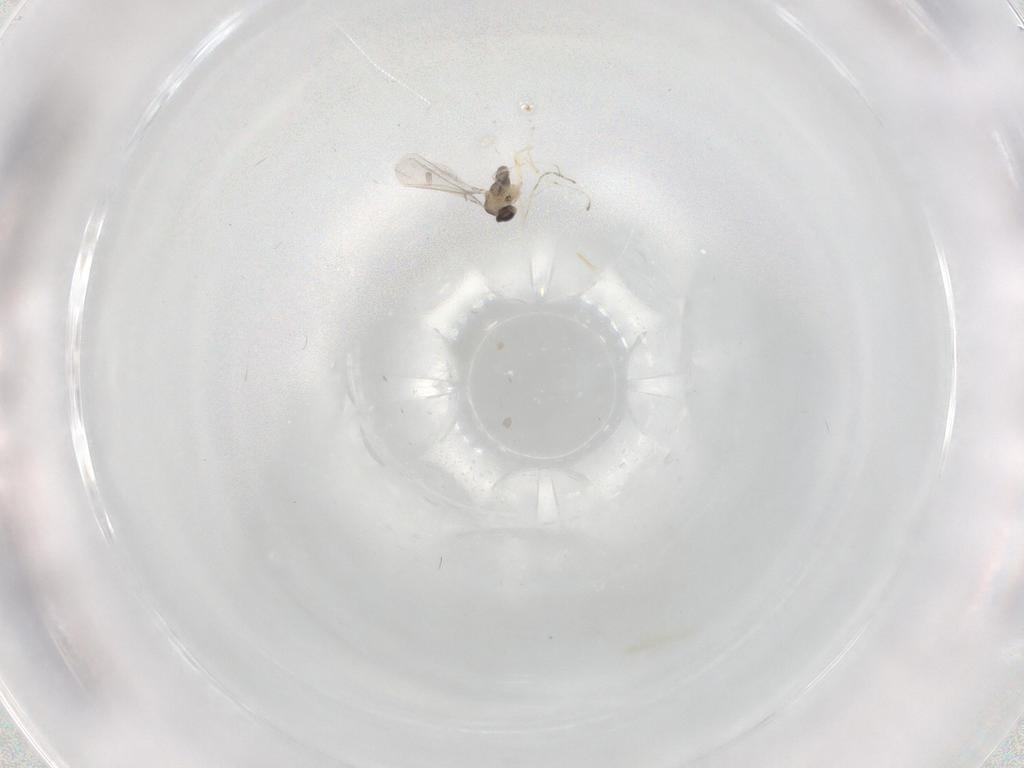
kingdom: Animalia
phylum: Arthropoda
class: Insecta
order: Diptera
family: Cecidomyiidae
